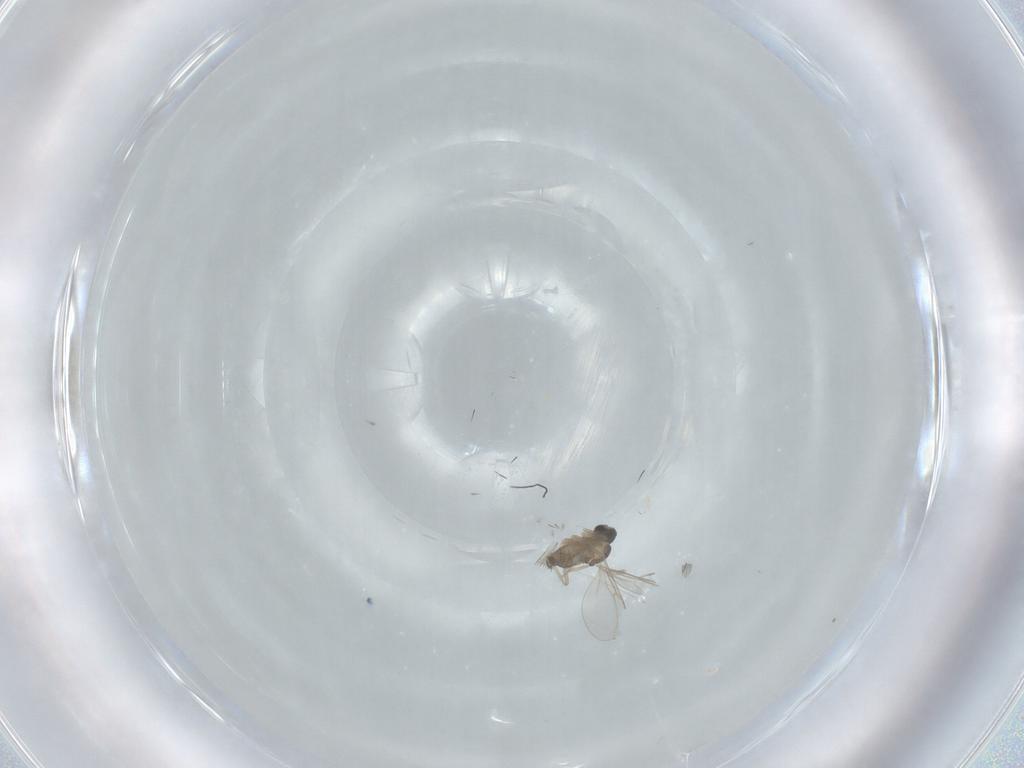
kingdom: Animalia
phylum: Arthropoda
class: Insecta
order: Diptera
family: Cecidomyiidae
